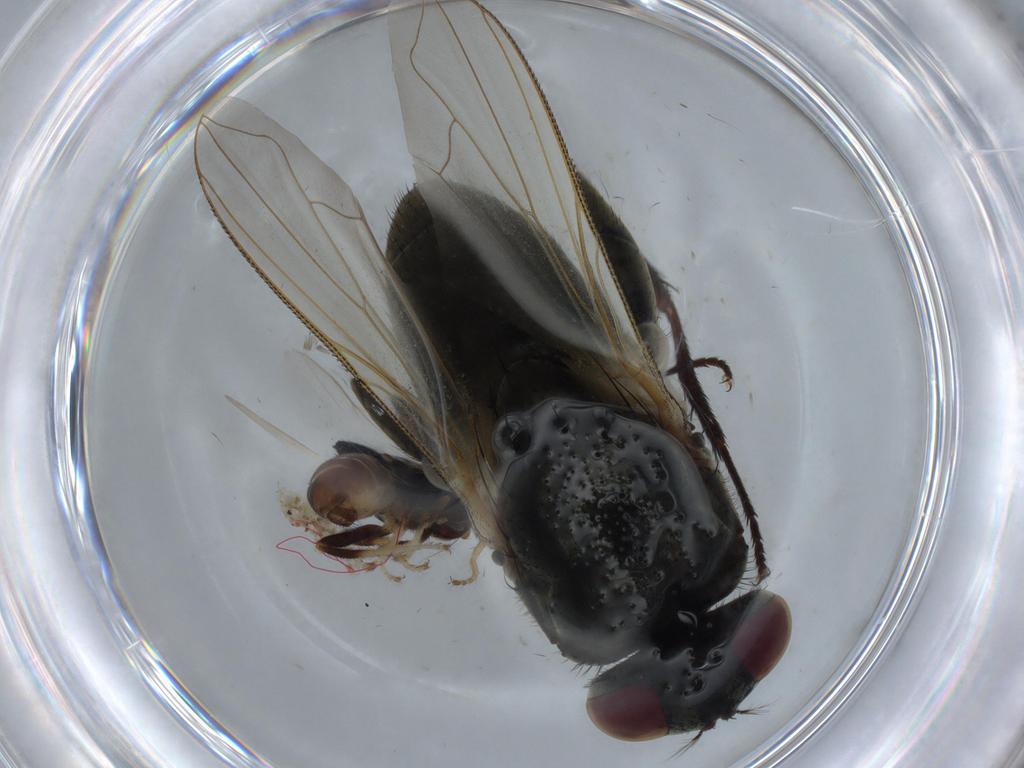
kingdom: Animalia
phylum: Arthropoda
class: Insecta
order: Diptera
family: Chloropidae
